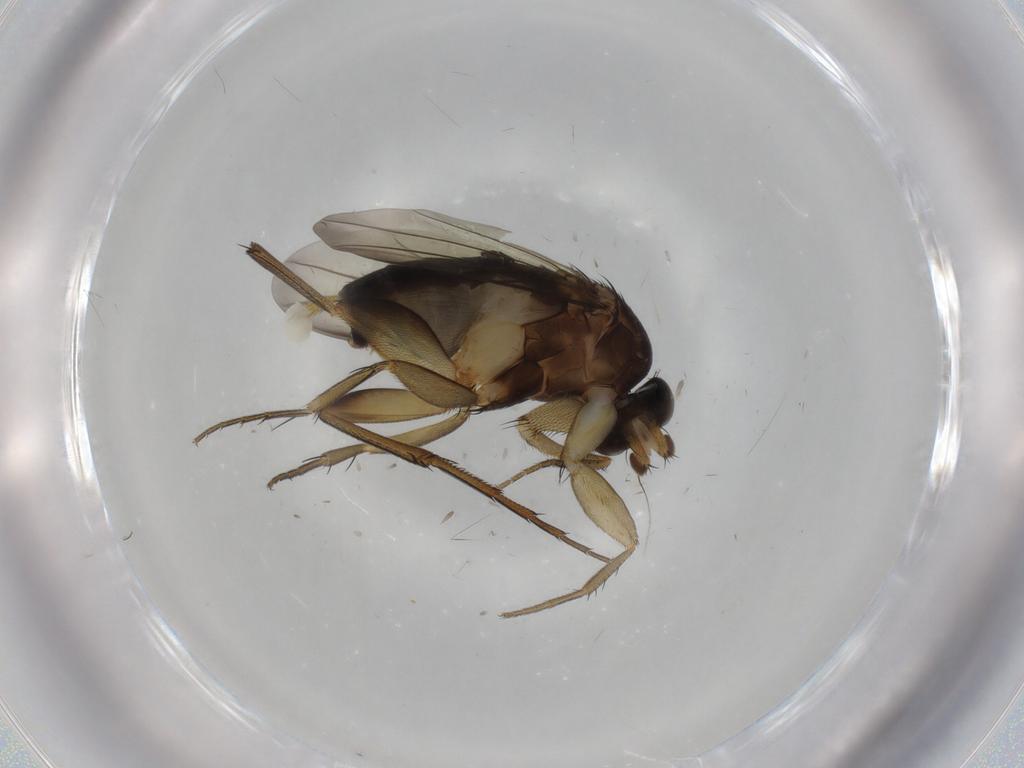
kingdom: Animalia
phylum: Arthropoda
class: Insecta
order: Diptera
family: Phoridae
